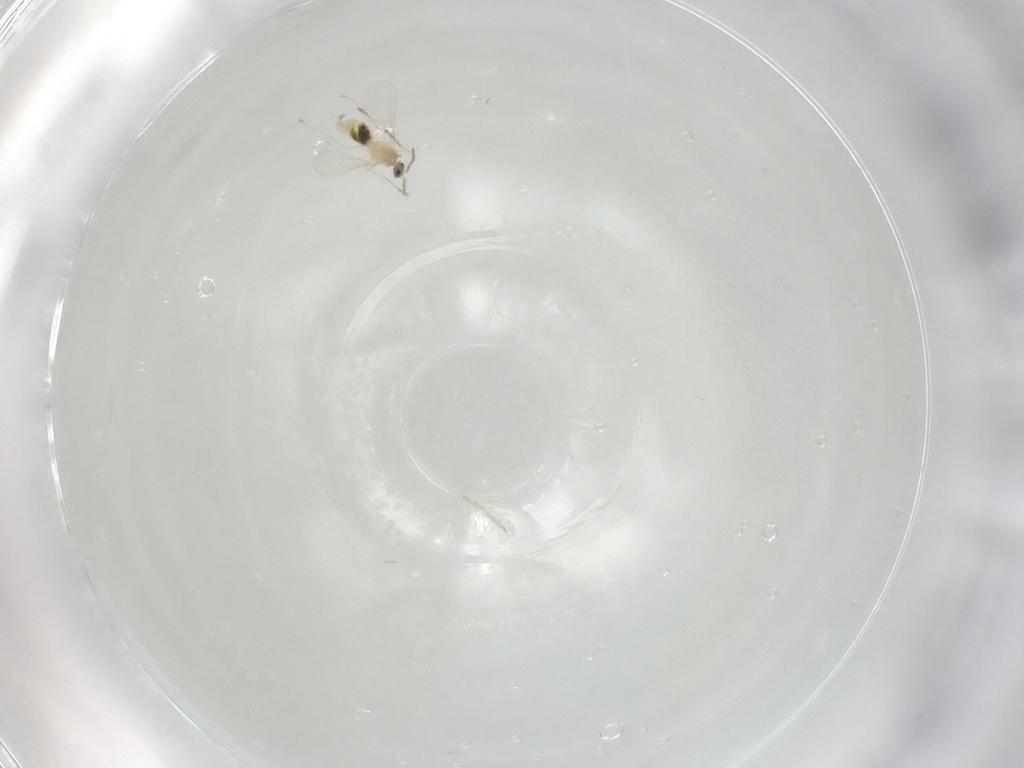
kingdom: Animalia
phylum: Arthropoda
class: Insecta
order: Diptera
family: Cecidomyiidae
